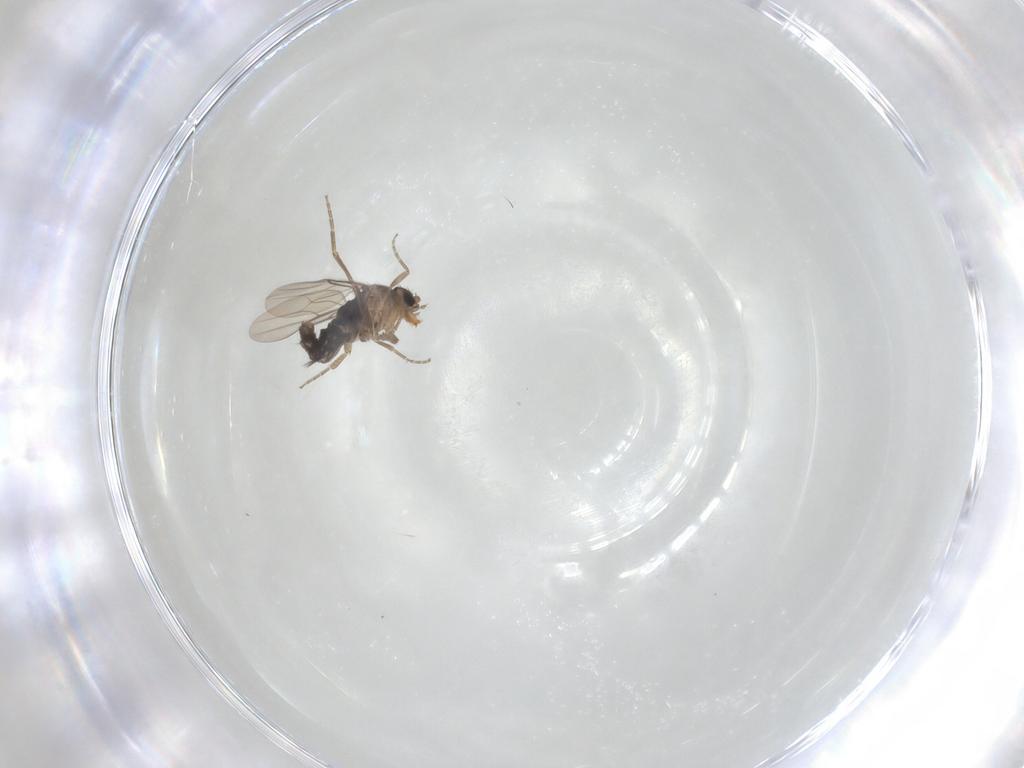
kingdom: Animalia
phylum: Arthropoda
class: Insecta
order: Diptera
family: Phoridae
